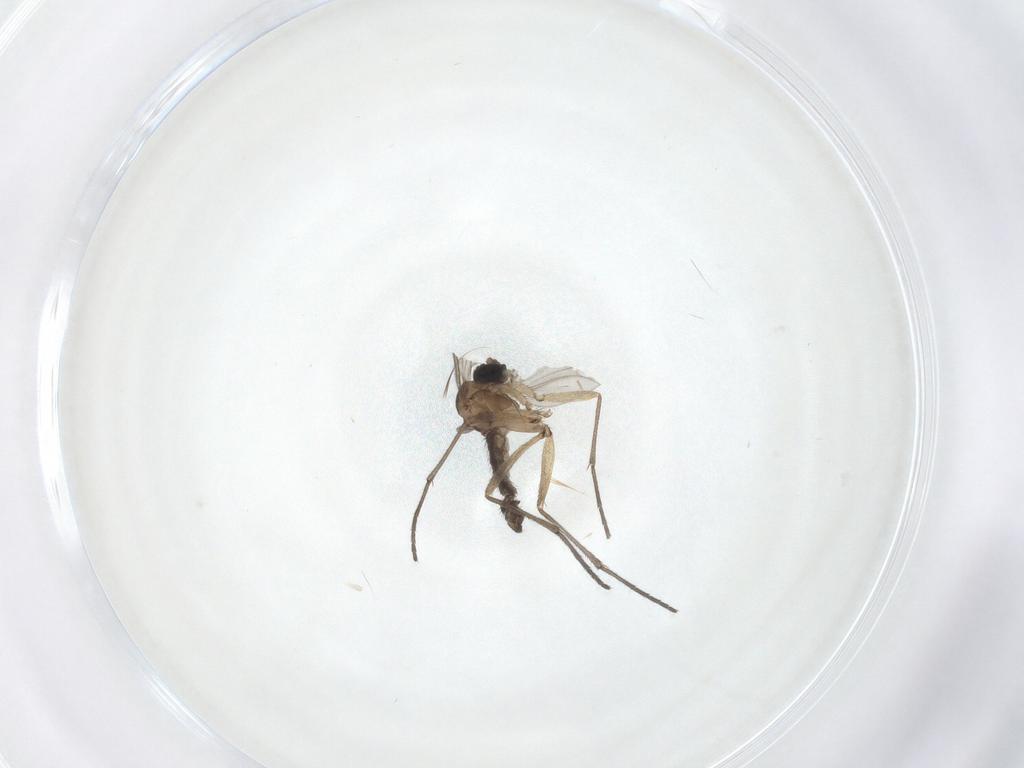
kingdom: Animalia
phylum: Arthropoda
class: Insecta
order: Diptera
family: Sciaridae
